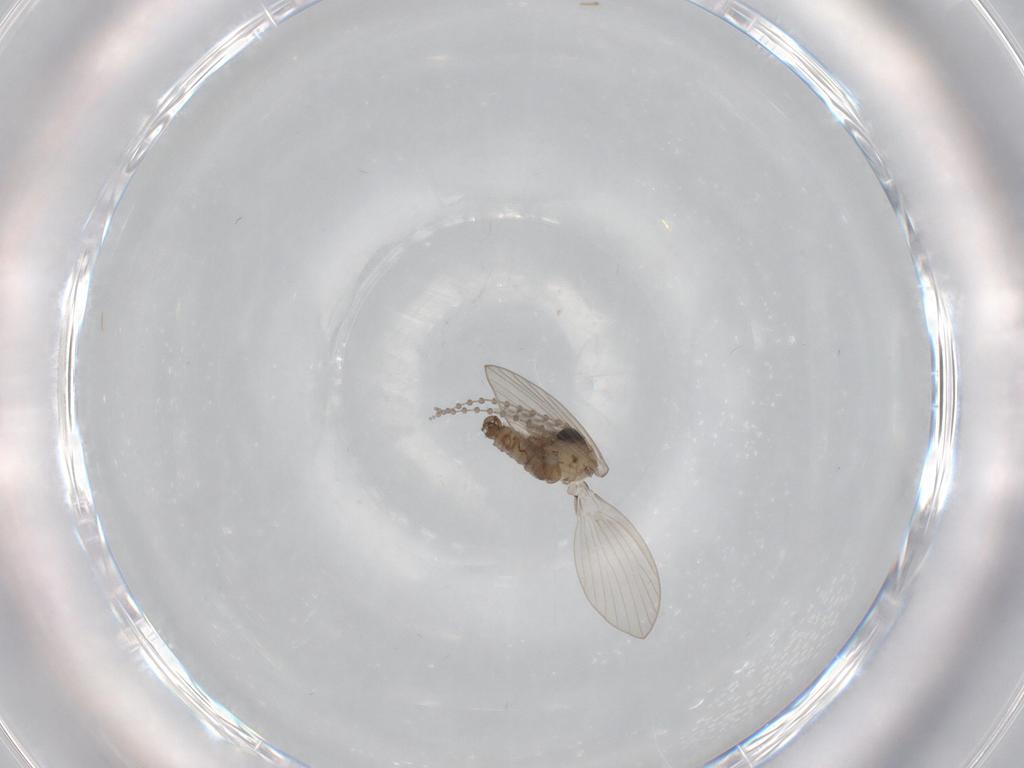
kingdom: Animalia
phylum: Arthropoda
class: Insecta
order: Diptera
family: Psychodidae
